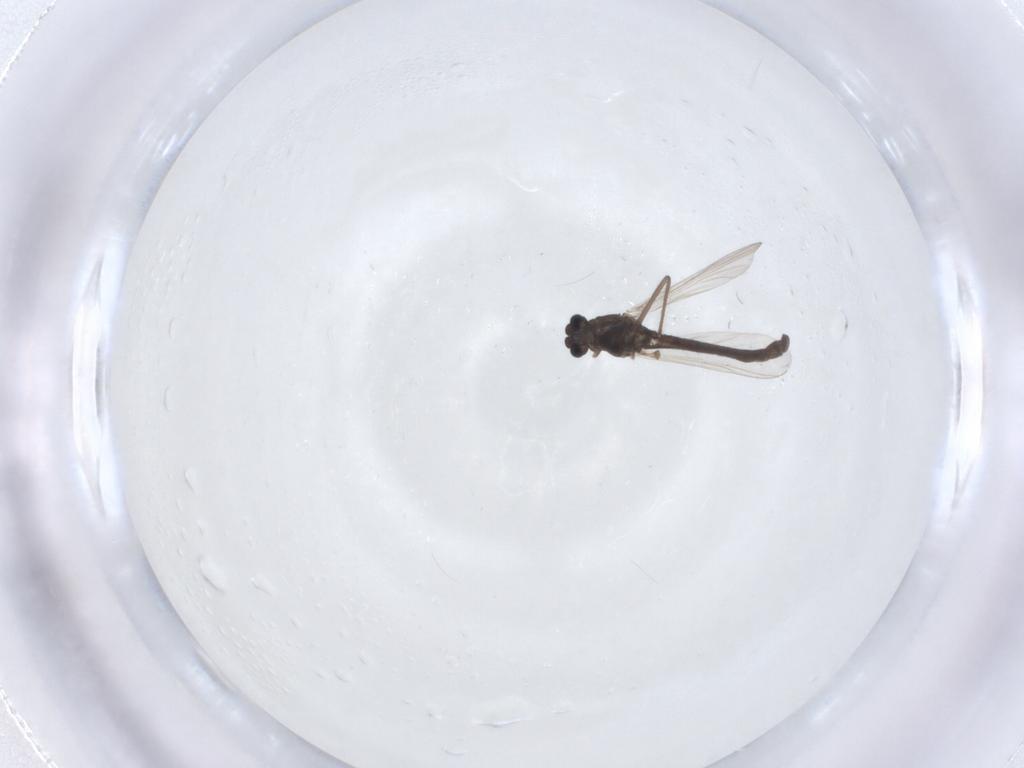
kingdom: Animalia
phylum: Arthropoda
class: Insecta
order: Diptera
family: Chironomidae
